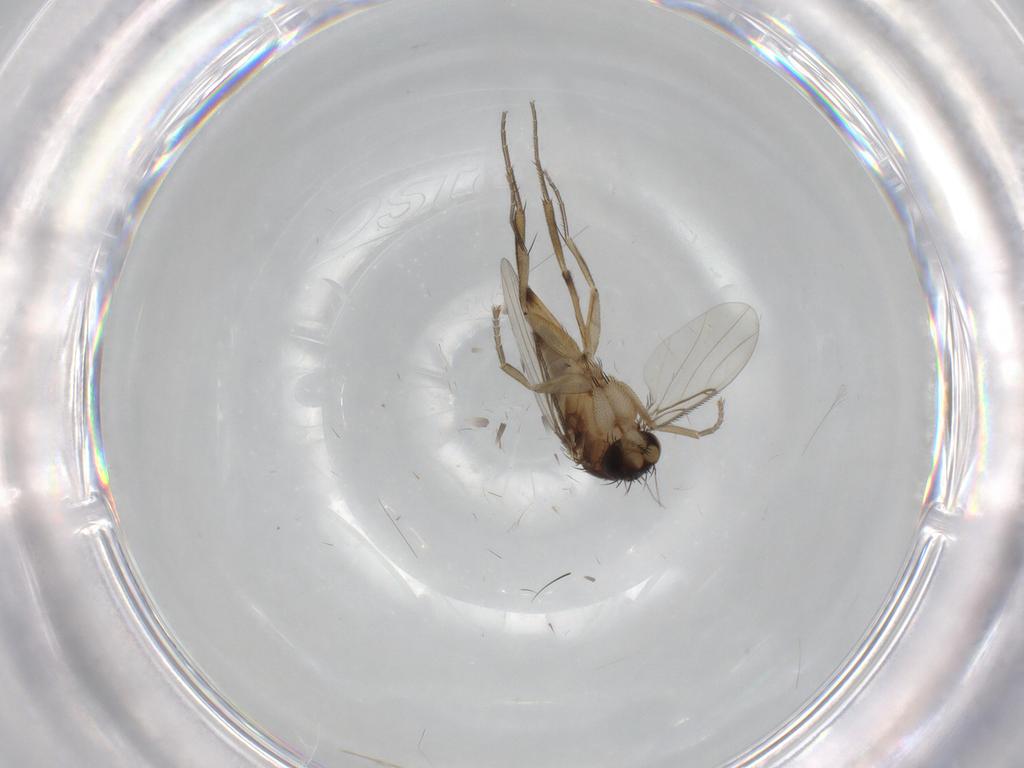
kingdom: Animalia
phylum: Arthropoda
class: Insecta
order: Diptera
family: Phoridae
